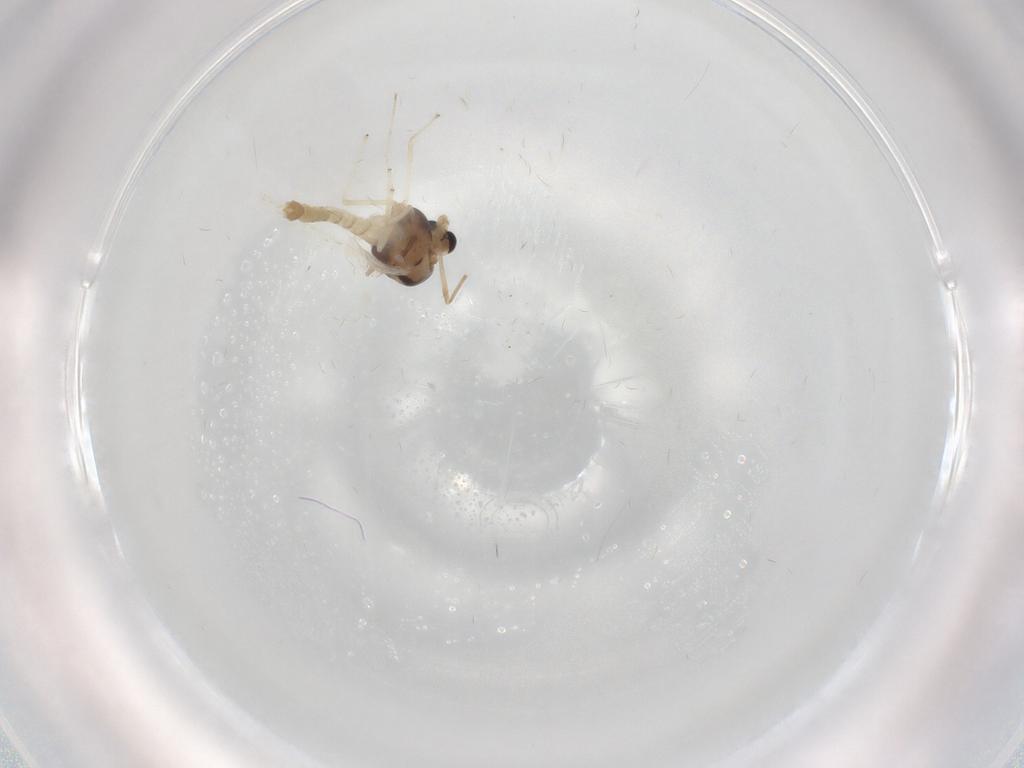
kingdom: Animalia
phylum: Arthropoda
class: Insecta
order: Diptera
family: Chironomidae
